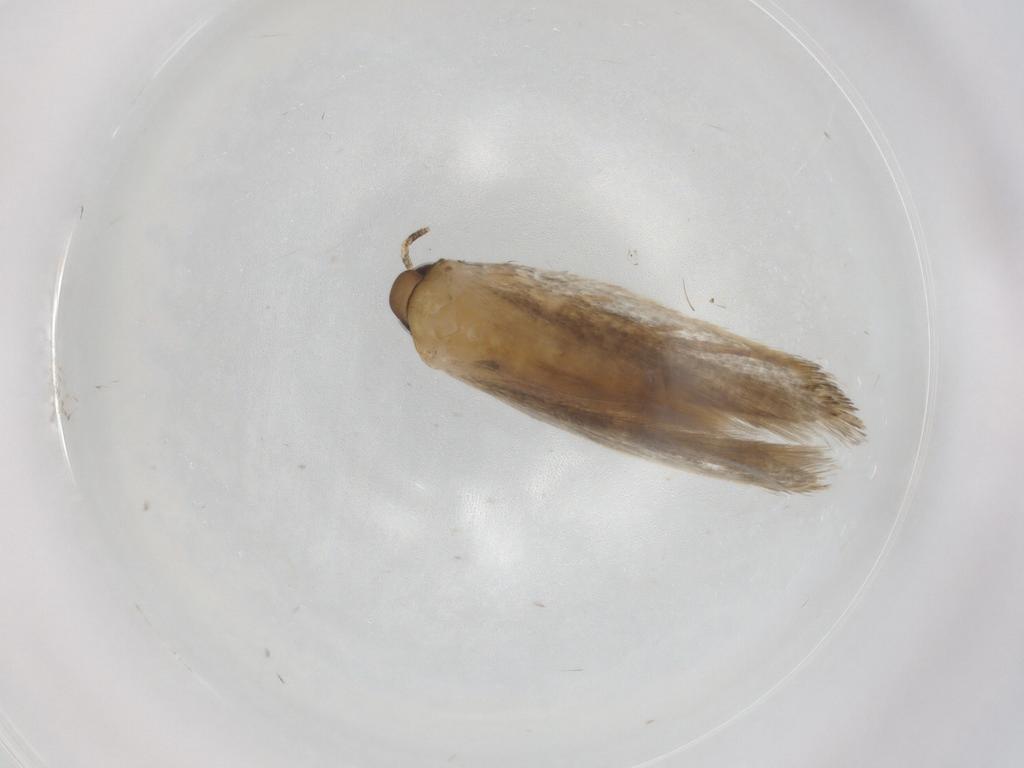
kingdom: Animalia
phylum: Arthropoda
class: Insecta
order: Lepidoptera
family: Autostichidae
